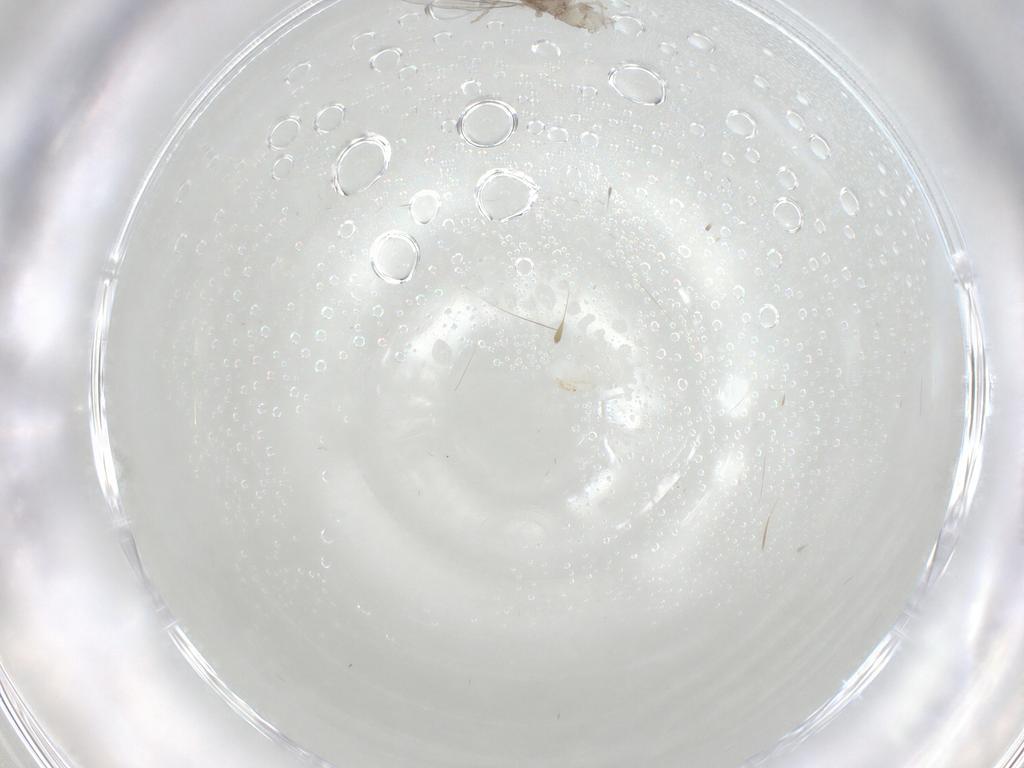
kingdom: Animalia
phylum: Arthropoda
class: Insecta
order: Diptera
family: Cecidomyiidae
